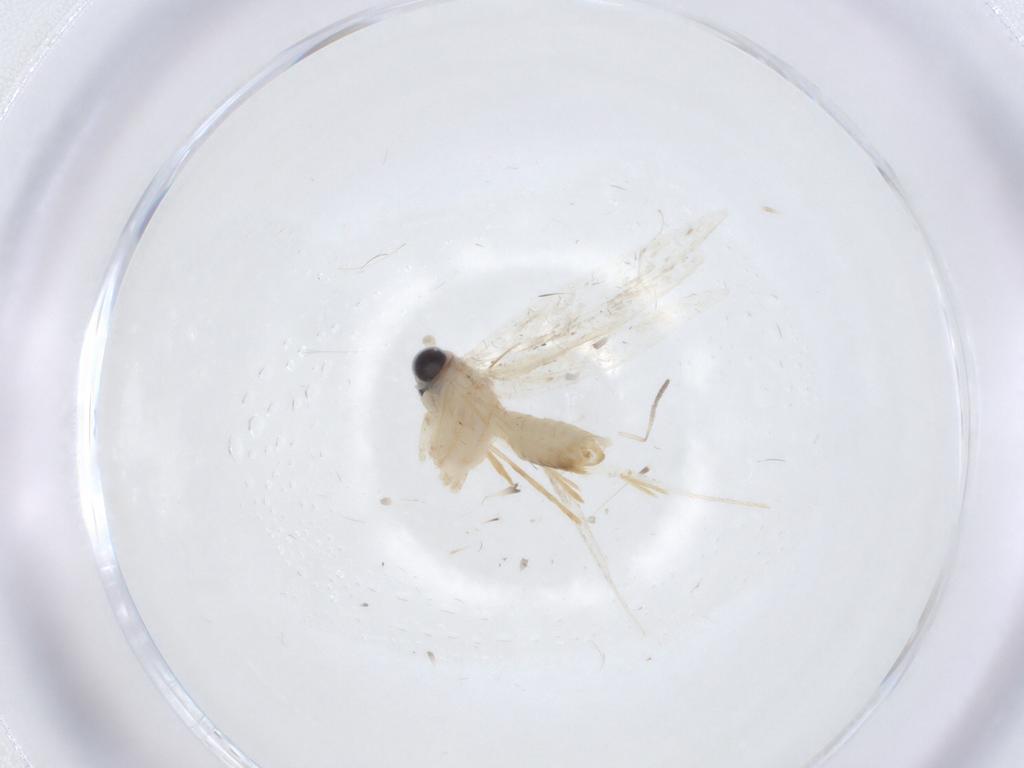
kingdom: Animalia
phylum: Arthropoda
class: Insecta
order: Lepidoptera
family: Psychidae
